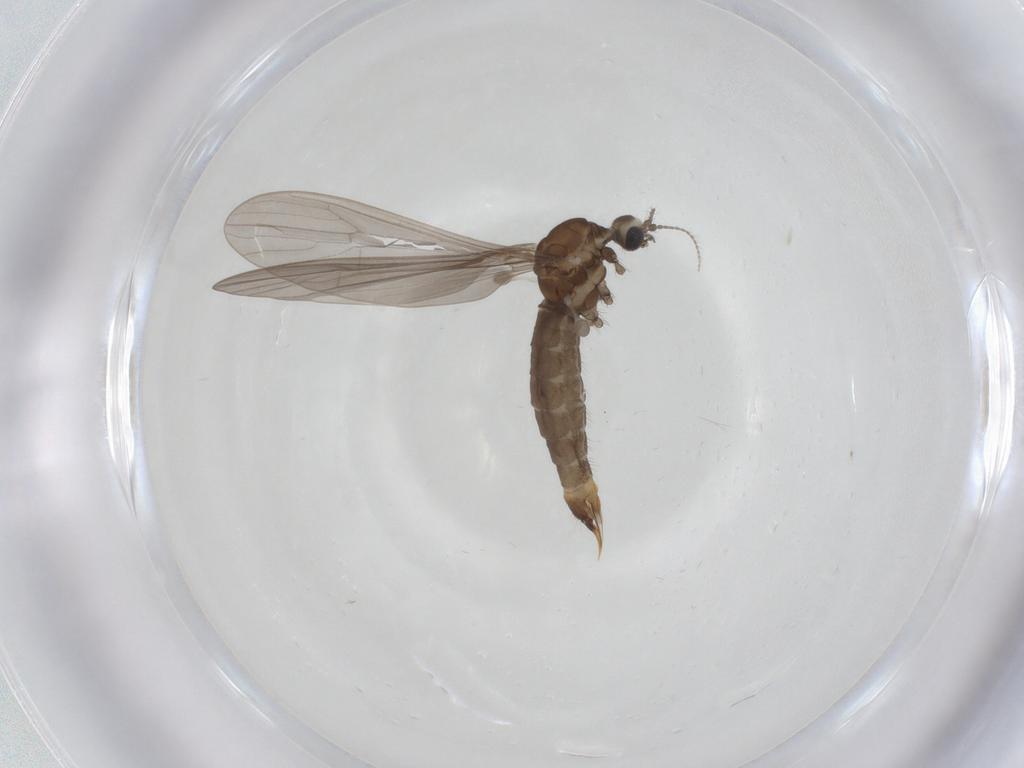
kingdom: Animalia
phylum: Arthropoda
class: Insecta
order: Diptera
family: Limoniidae
